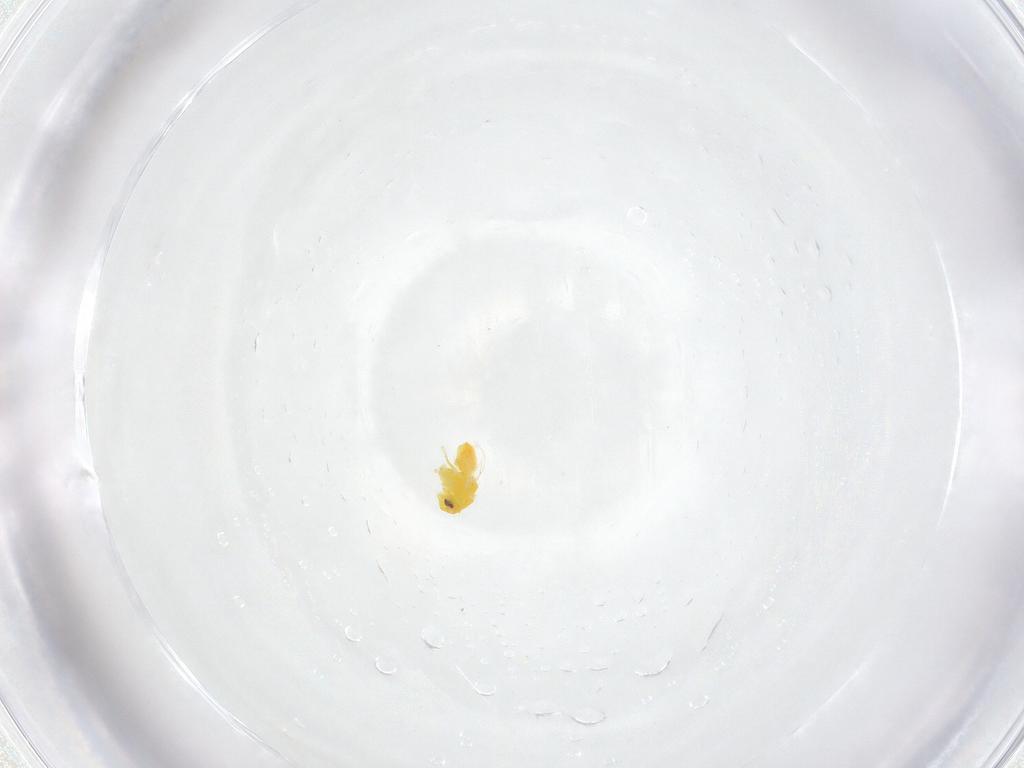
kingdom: Animalia
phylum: Arthropoda
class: Insecta
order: Hemiptera
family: Aleyrodidae
